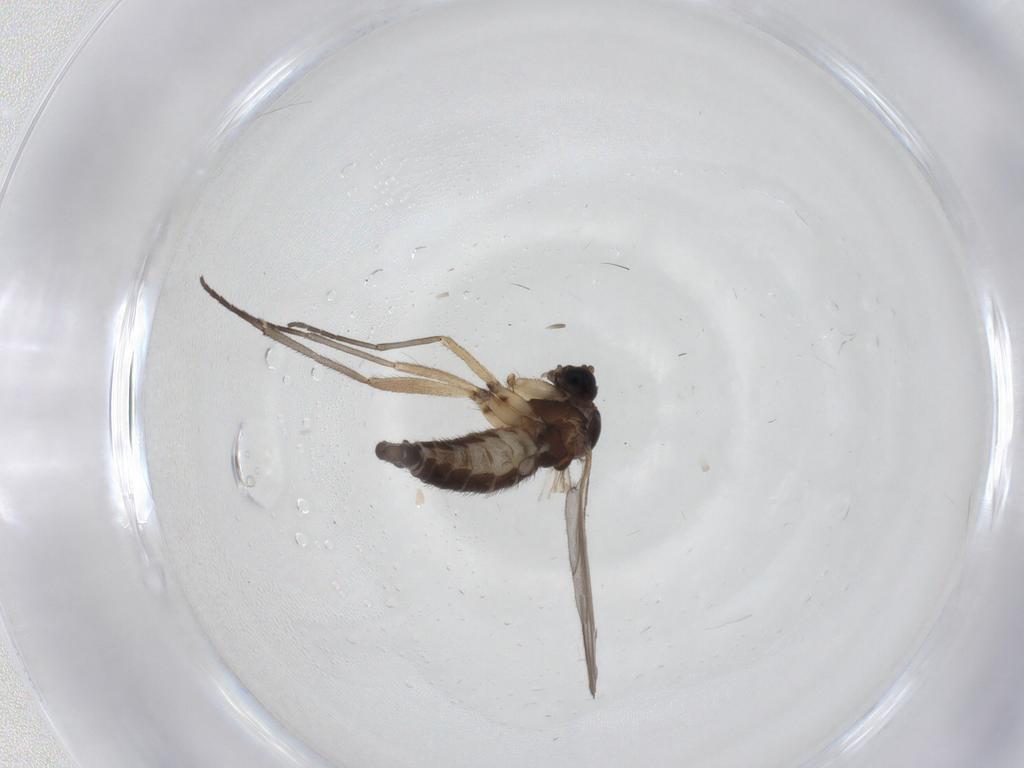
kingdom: Animalia
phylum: Arthropoda
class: Insecta
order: Diptera
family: Sciaridae
